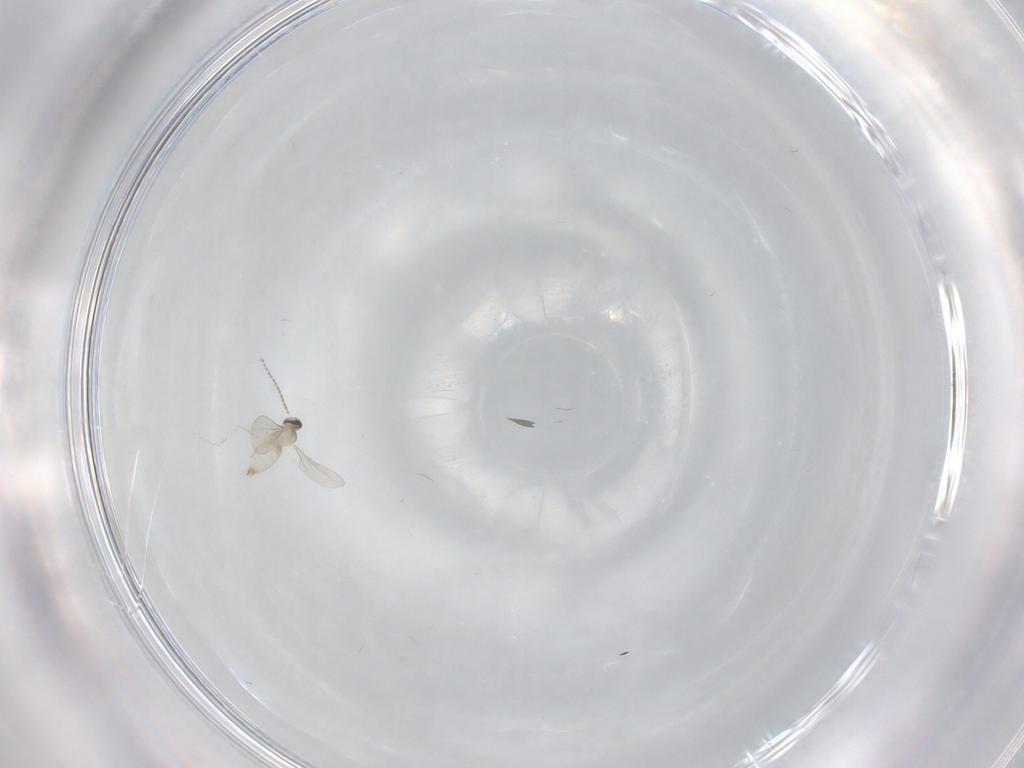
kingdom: Animalia
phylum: Arthropoda
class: Insecta
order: Diptera
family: Cecidomyiidae
